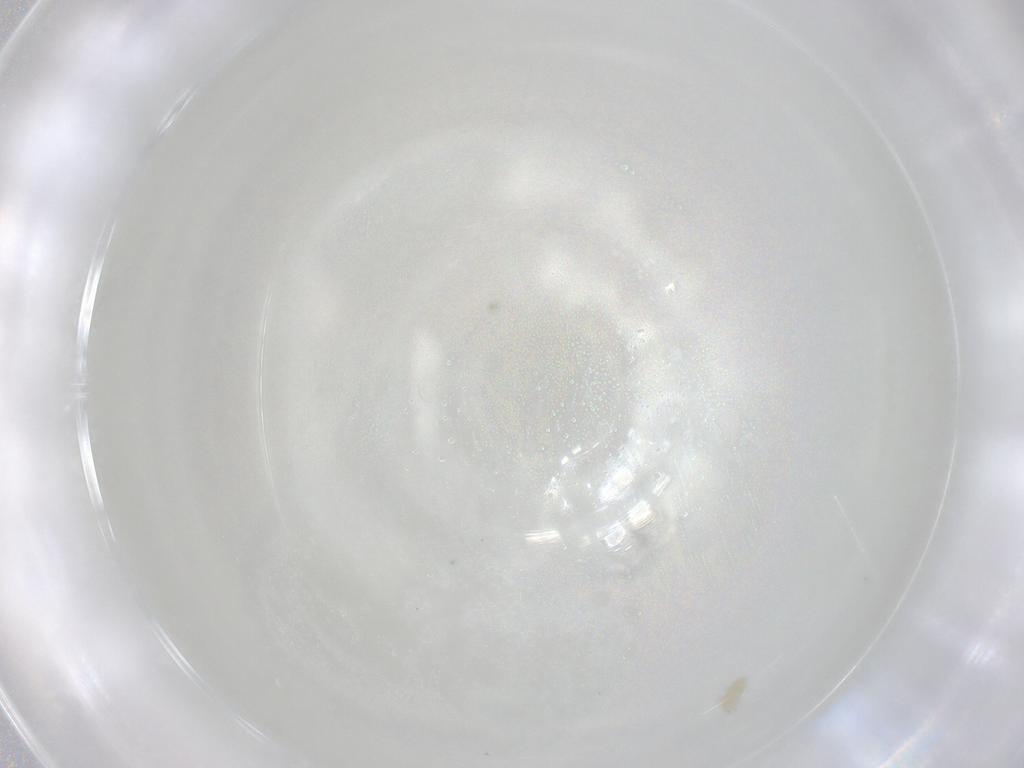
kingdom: Animalia
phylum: Arthropoda
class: Arachnida
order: Trombidiformes
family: Eupodidae
